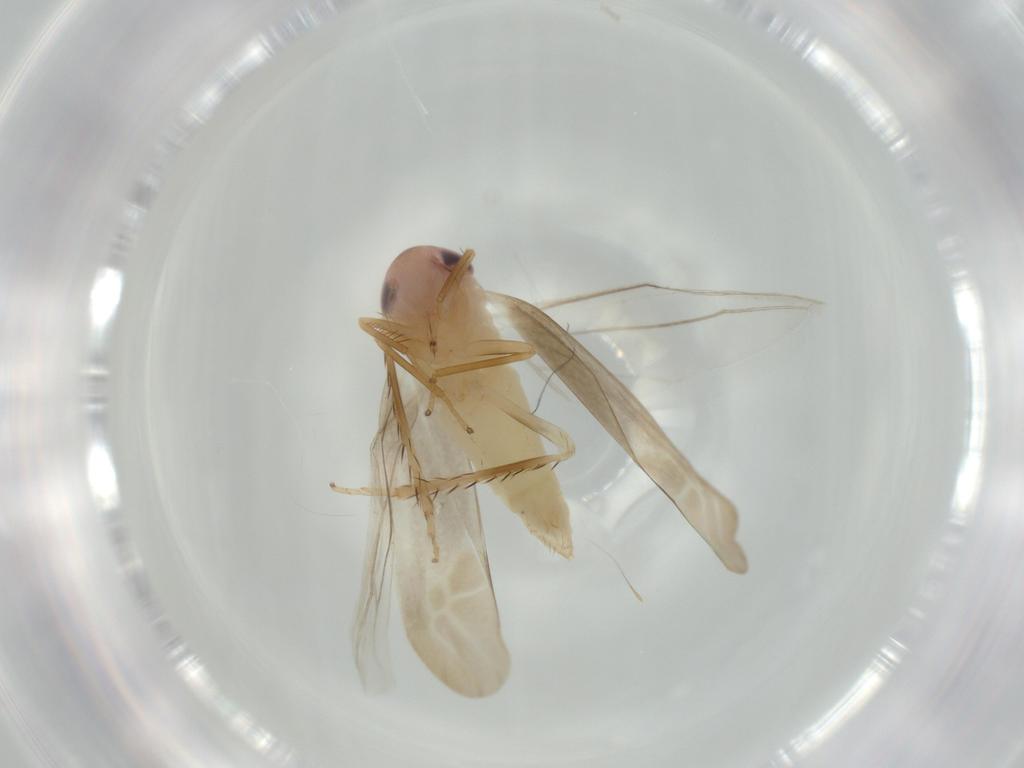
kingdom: Animalia
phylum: Arthropoda
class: Insecta
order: Hemiptera
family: Cicadellidae
